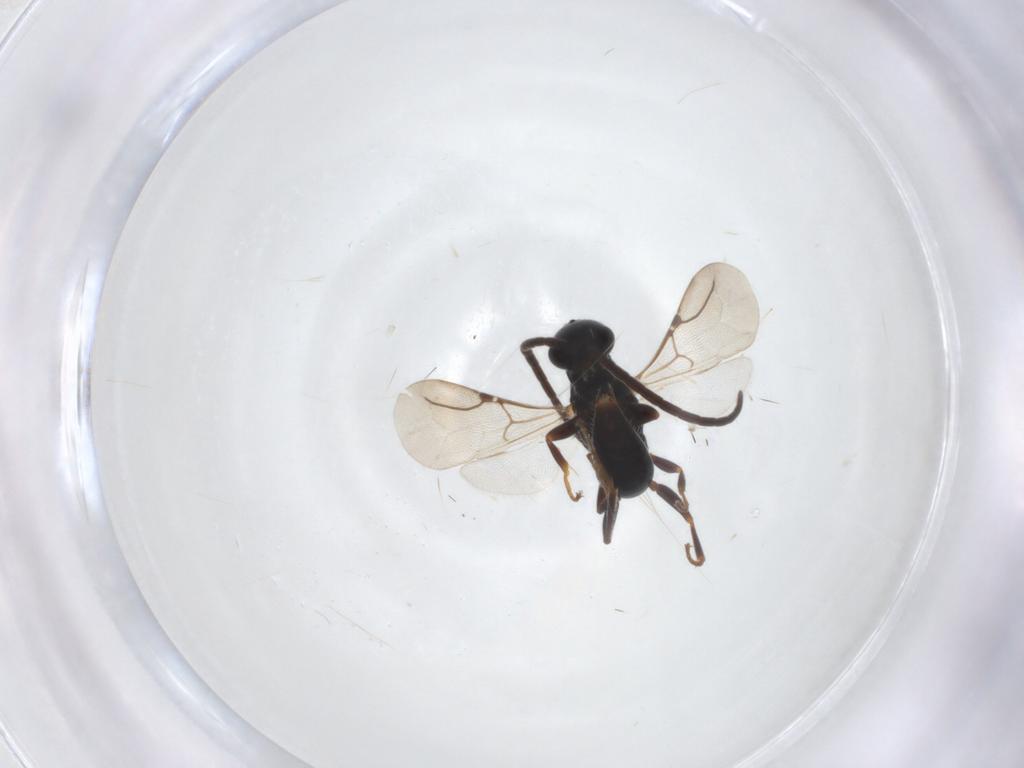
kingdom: Animalia
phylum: Arthropoda
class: Insecta
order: Hymenoptera
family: Bethylidae
